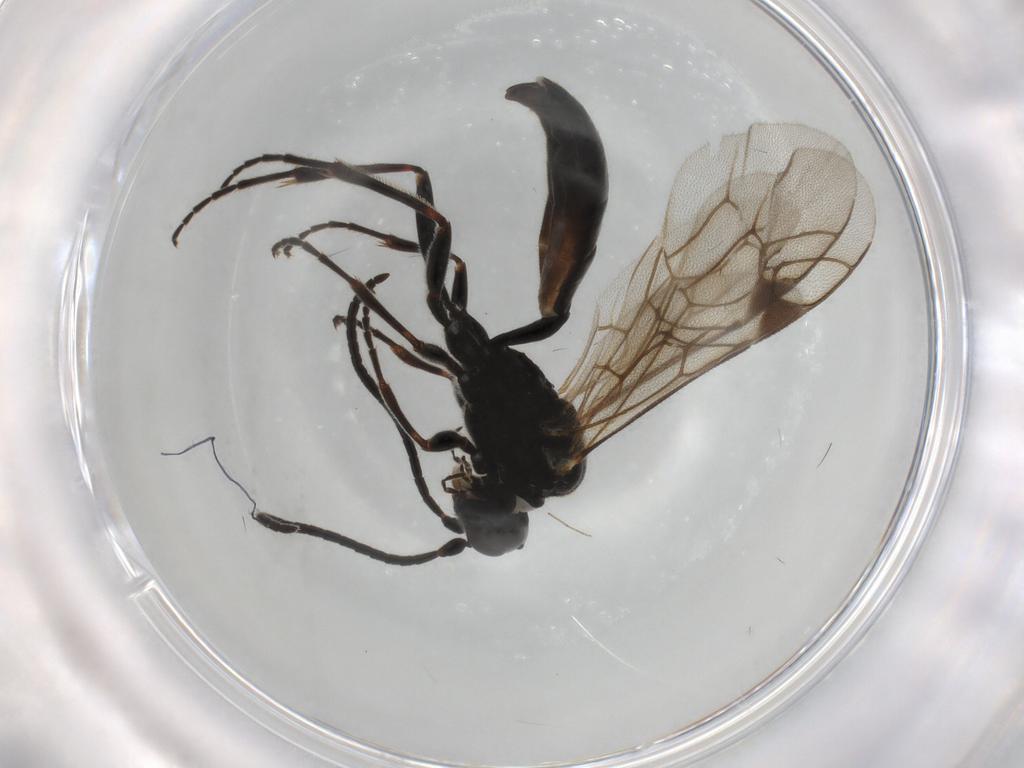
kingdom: Animalia
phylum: Arthropoda
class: Insecta
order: Hymenoptera
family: Ichneumonidae
